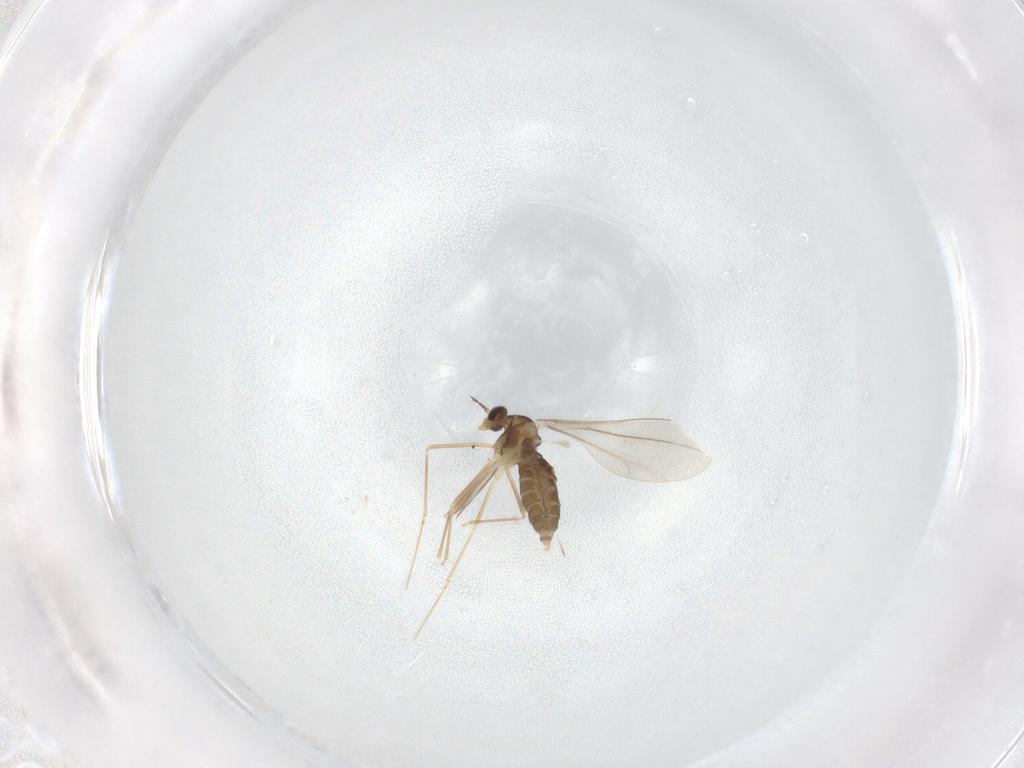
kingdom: Animalia
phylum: Arthropoda
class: Insecta
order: Diptera
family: Cecidomyiidae
